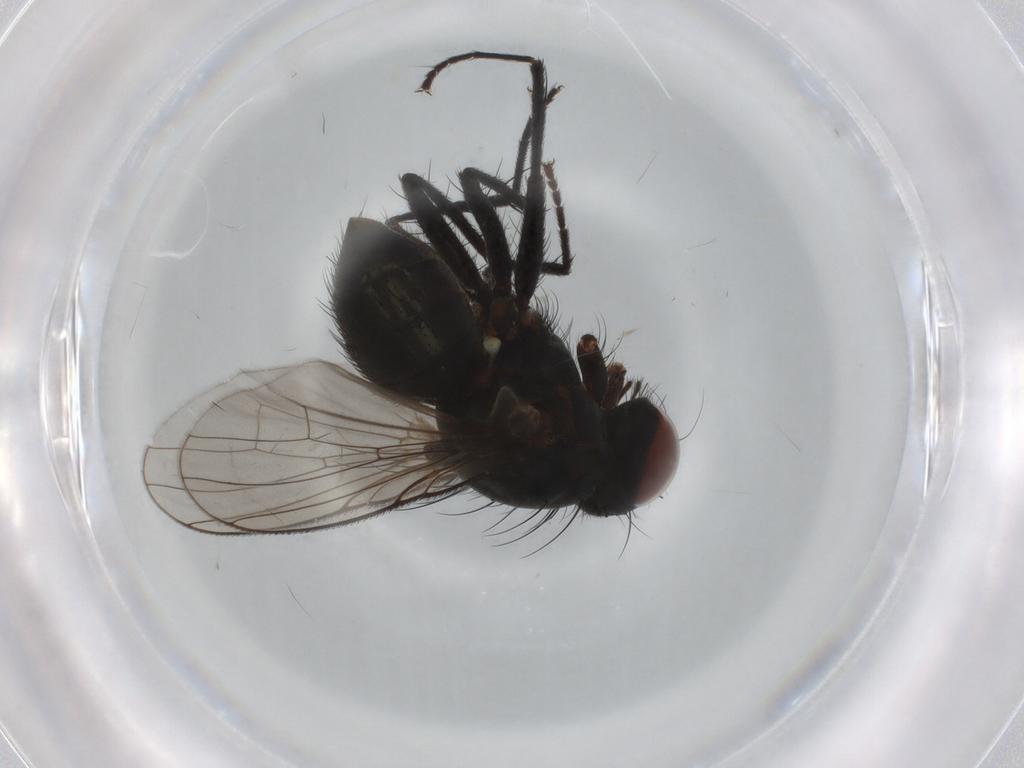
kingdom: Animalia
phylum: Arthropoda
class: Insecta
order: Diptera
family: Muscidae
